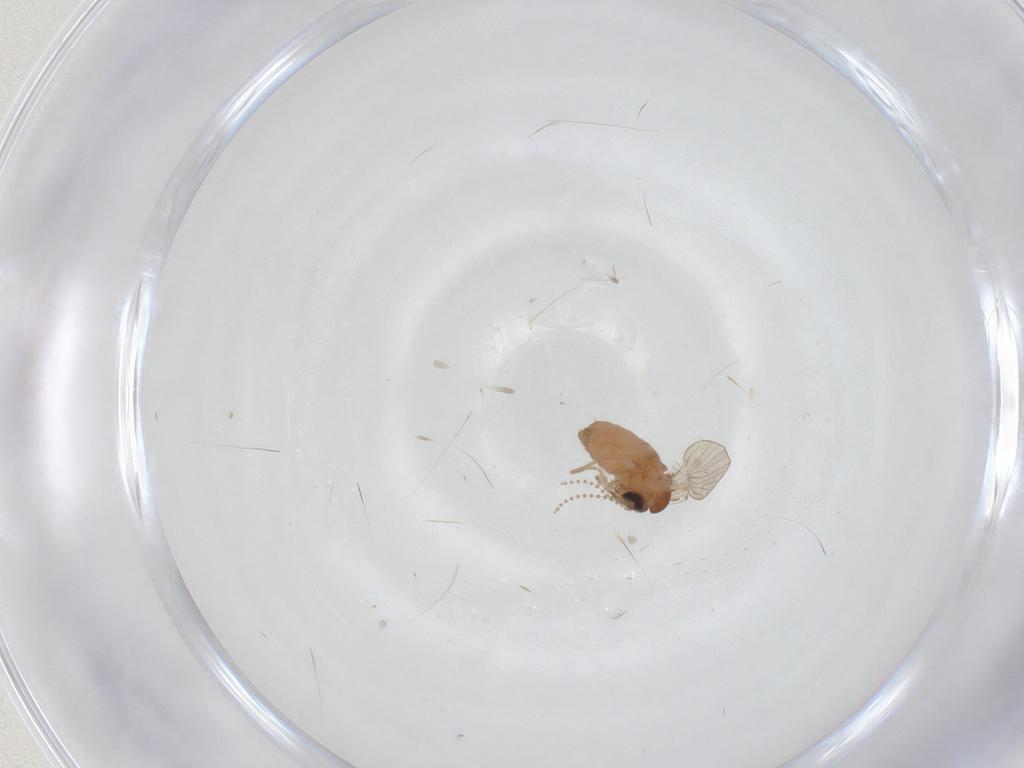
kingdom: Animalia
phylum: Arthropoda
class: Insecta
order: Diptera
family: Psychodidae
